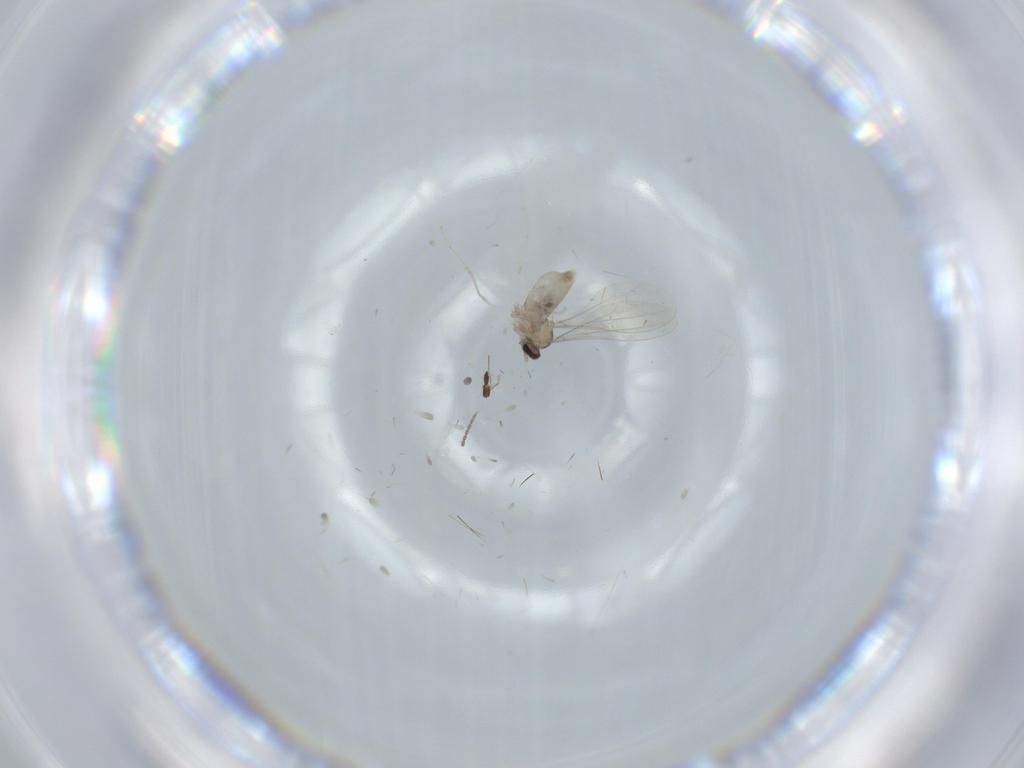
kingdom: Animalia
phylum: Arthropoda
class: Insecta
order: Diptera
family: Cecidomyiidae
